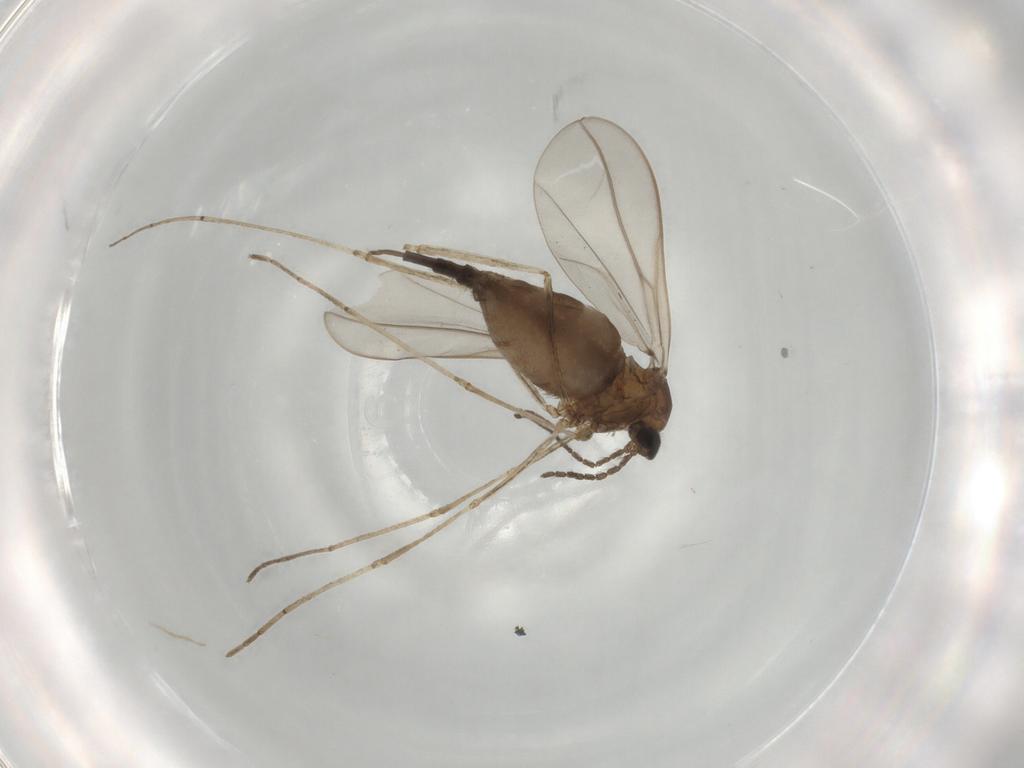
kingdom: Animalia
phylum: Arthropoda
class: Insecta
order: Diptera
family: Cecidomyiidae
